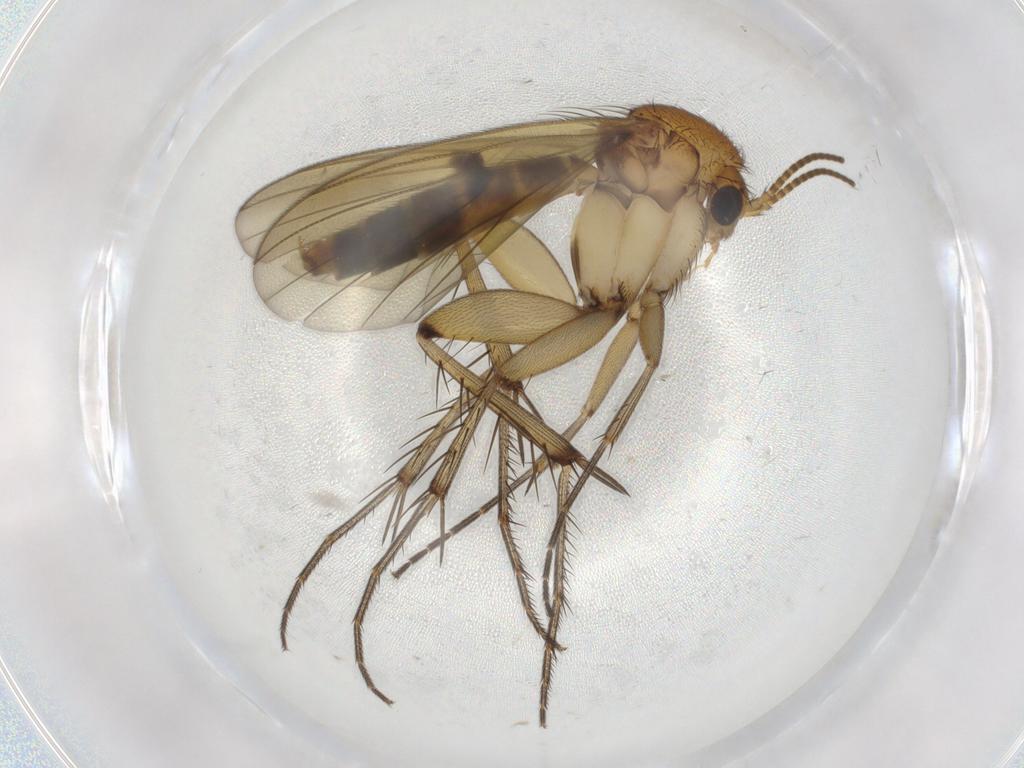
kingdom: Animalia
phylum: Arthropoda
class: Insecta
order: Diptera
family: Mycetophilidae
